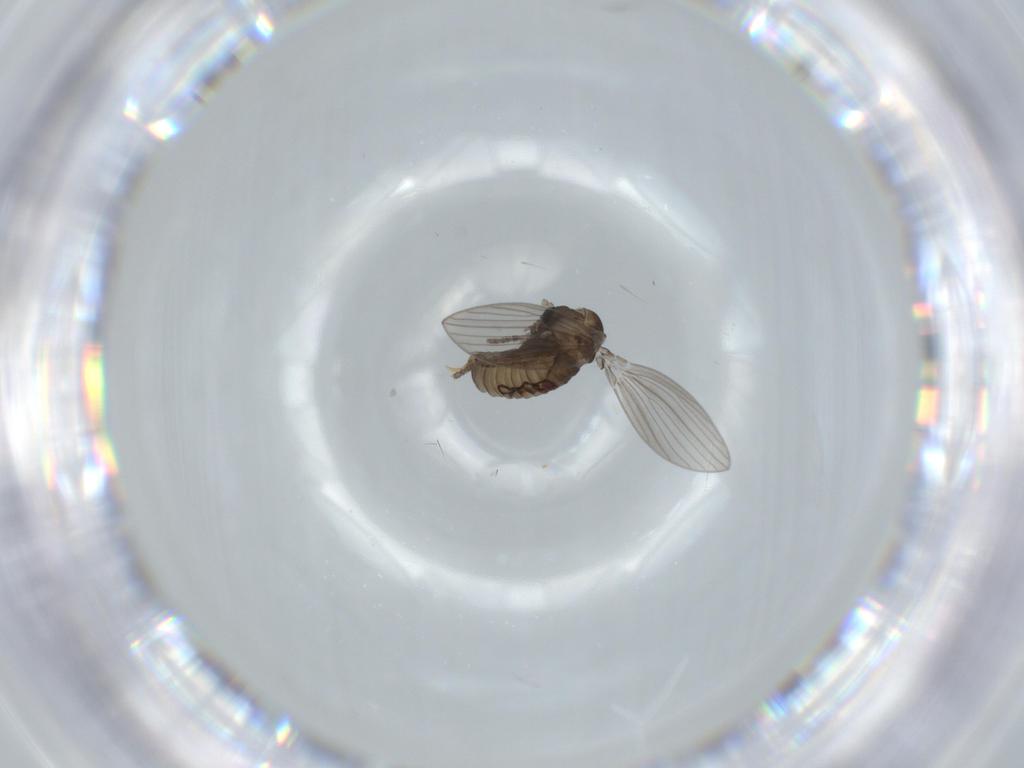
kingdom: Animalia
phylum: Arthropoda
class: Insecta
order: Diptera
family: Psychodidae
